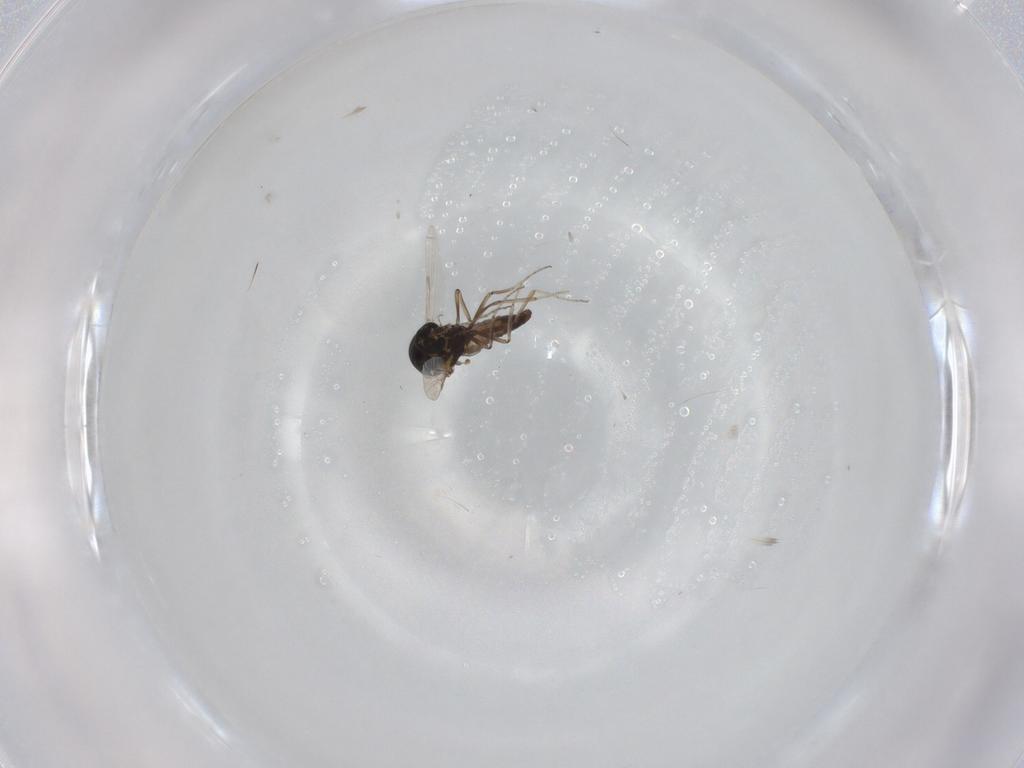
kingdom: Animalia
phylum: Arthropoda
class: Insecta
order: Diptera
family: Ceratopogonidae
